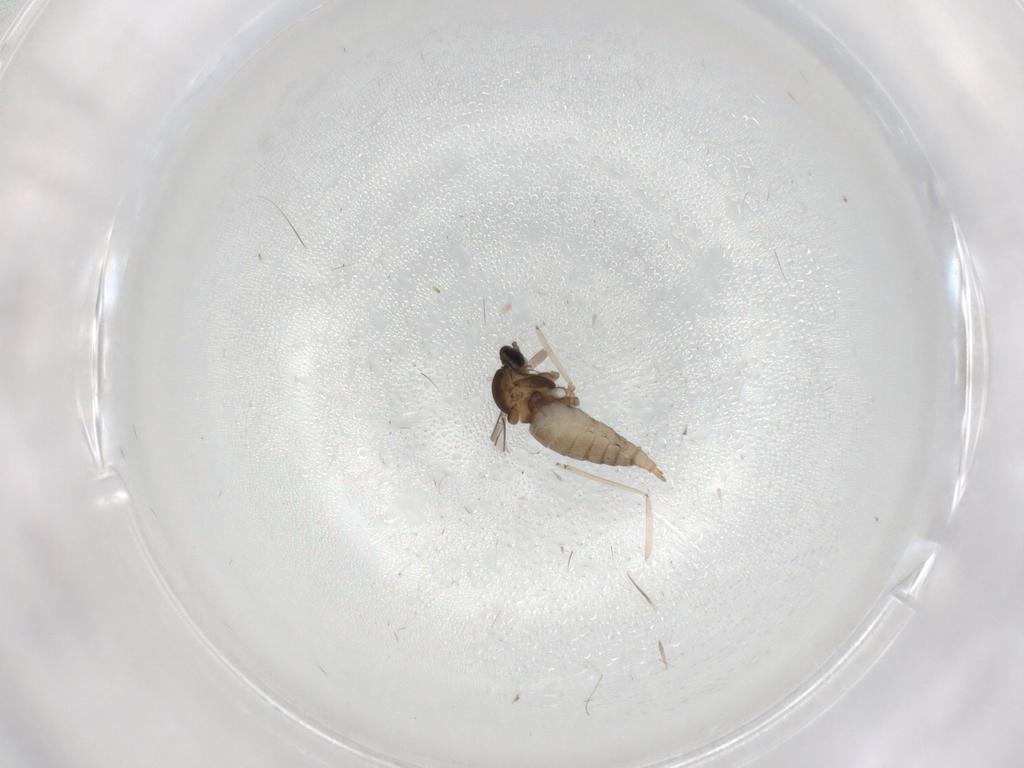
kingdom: Animalia
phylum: Arthropoda
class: Insecta
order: Diptera
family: Cecidomyiidae
